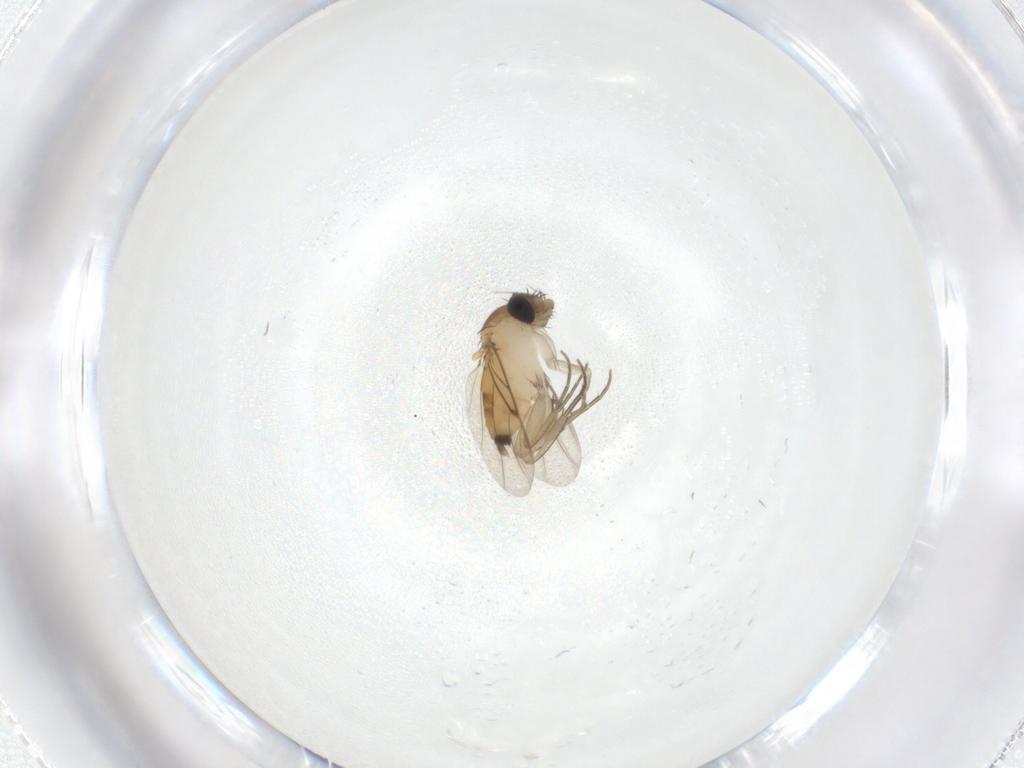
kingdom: Animalia
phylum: Arthropoda
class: Insecta
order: Diptera
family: Phoridae
